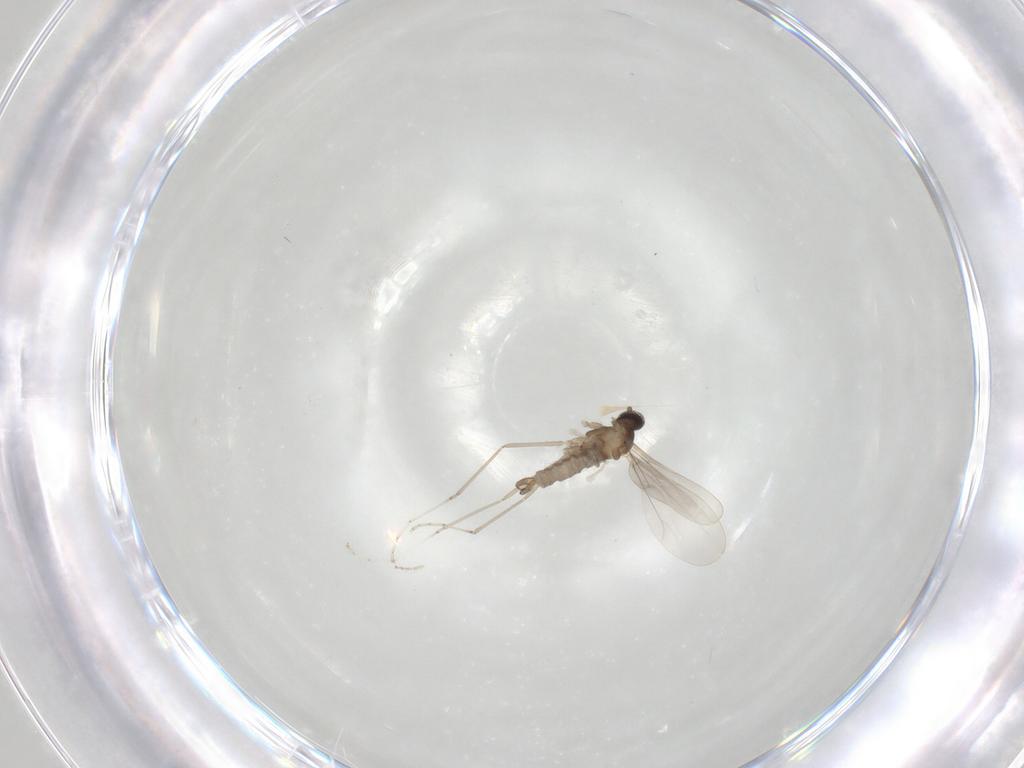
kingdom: Animalia
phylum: Arthropoda
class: Insecta
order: Diptera
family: Cecidomyiidae
